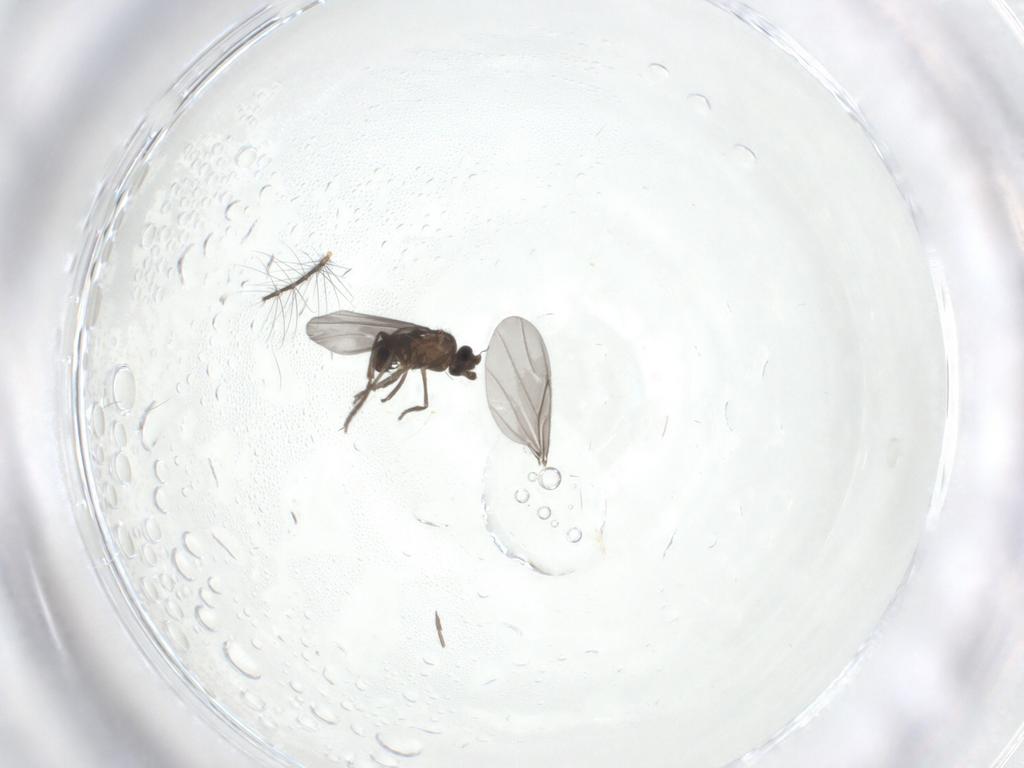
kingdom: Animalia
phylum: Arthropoda
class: Insecta
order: Diptera
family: Phoridae
